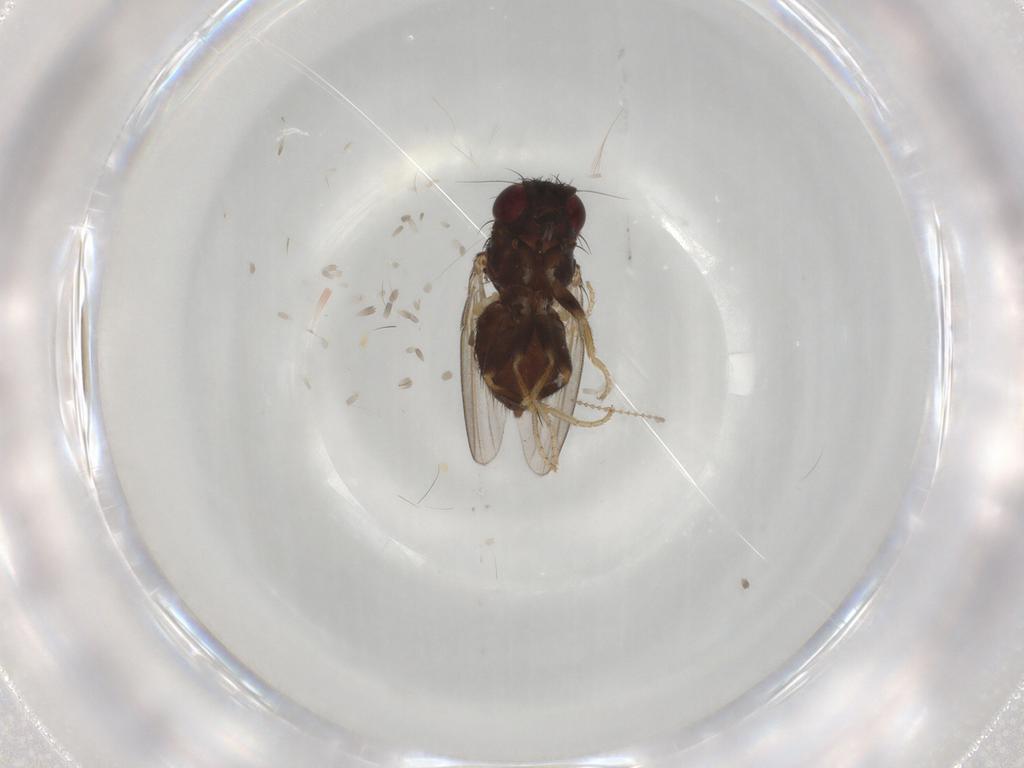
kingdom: Animalia
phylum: Arthropoda
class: Insecta
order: Diptera
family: Milichiidae
